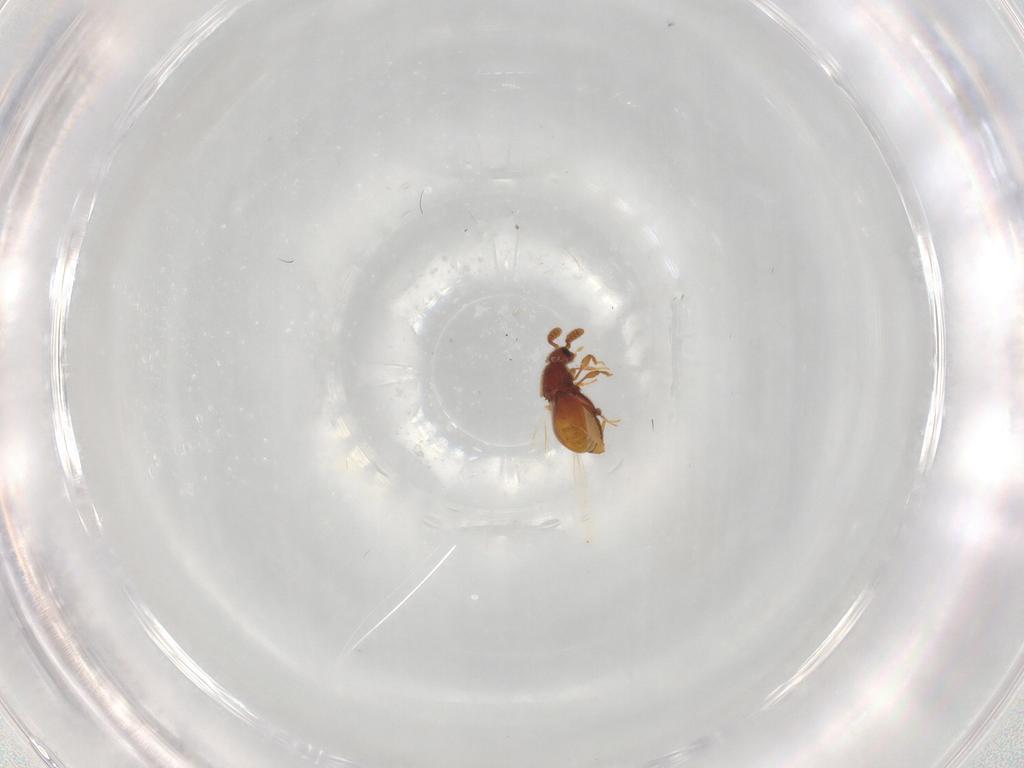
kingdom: Animalia
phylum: Arthropoda
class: Insecta
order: Coleoptera
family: Staphylinidae
